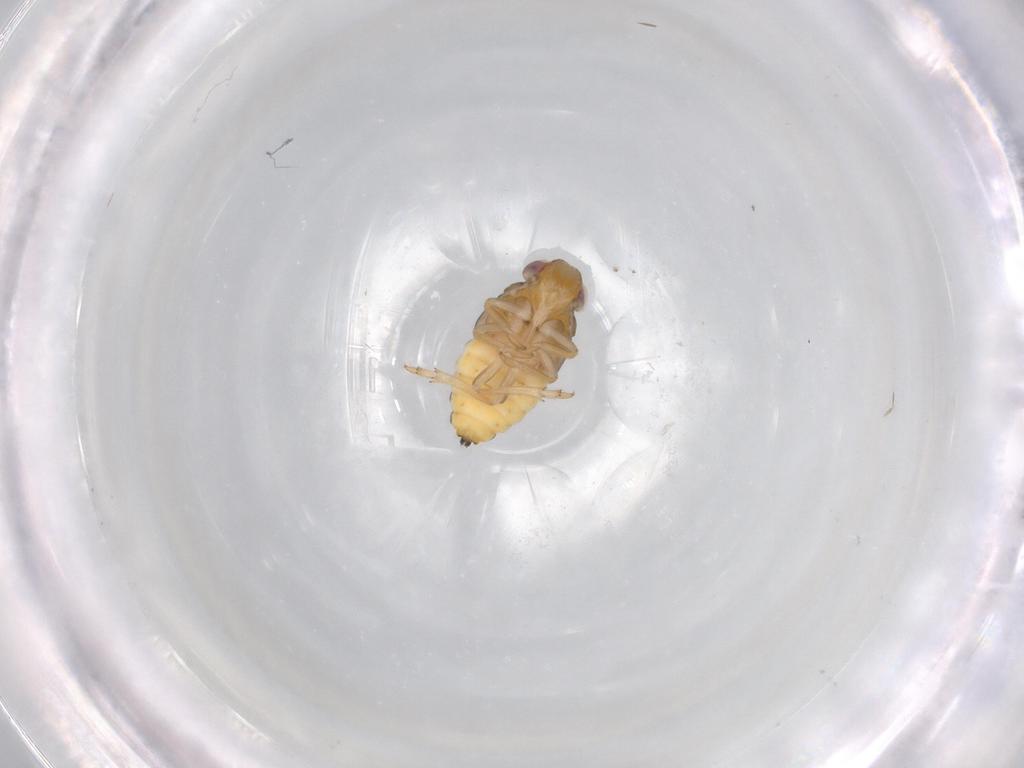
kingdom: Animalia
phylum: Arthropoda
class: Insecta
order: Hemiptera
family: Issidae
